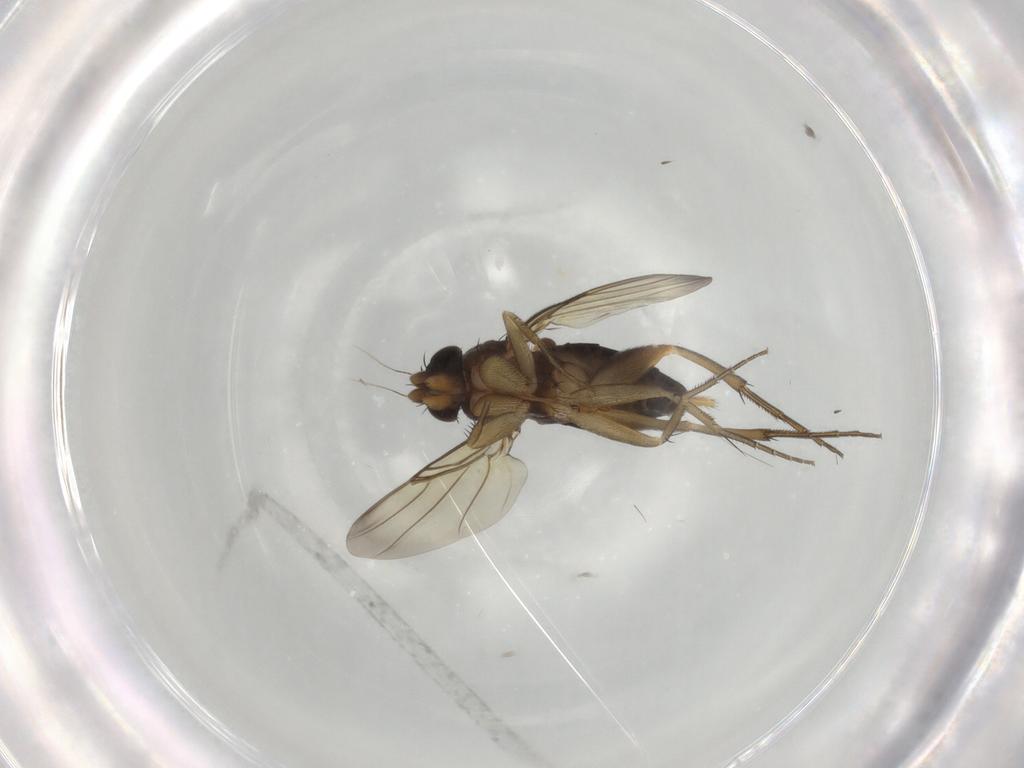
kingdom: Animalia
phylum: Arthropoda
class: Insecta
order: Diptera
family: Phoridae
